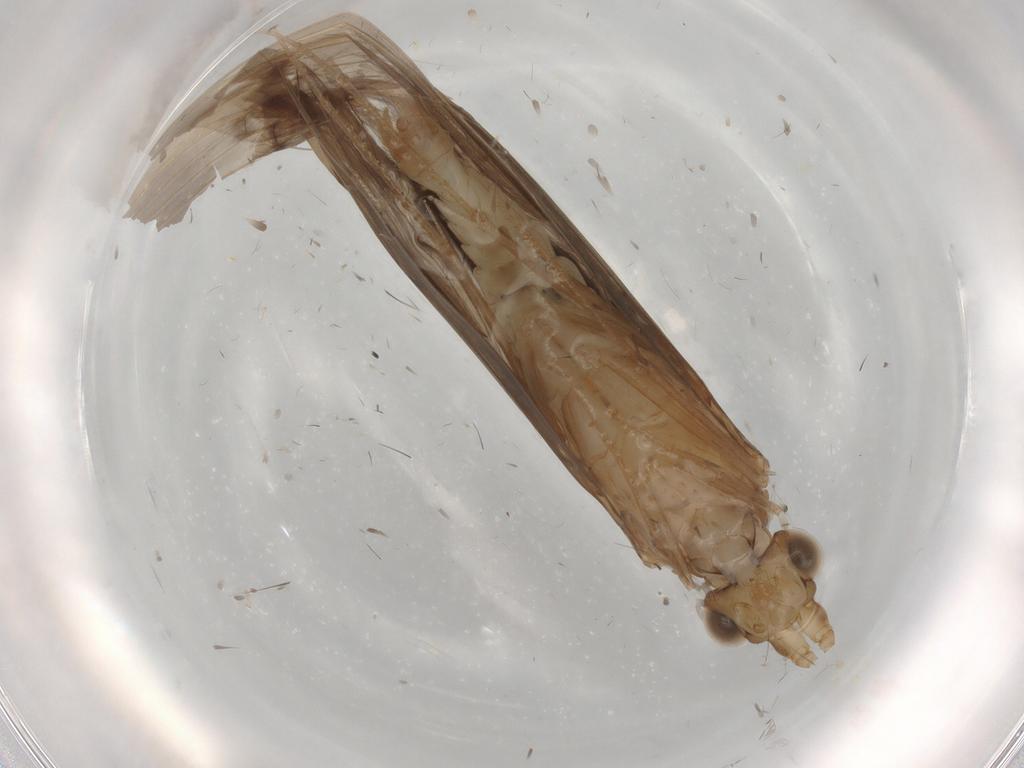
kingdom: Animalia
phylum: Arthropoda
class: Insecta
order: Trichoptera
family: Leptoceridae
